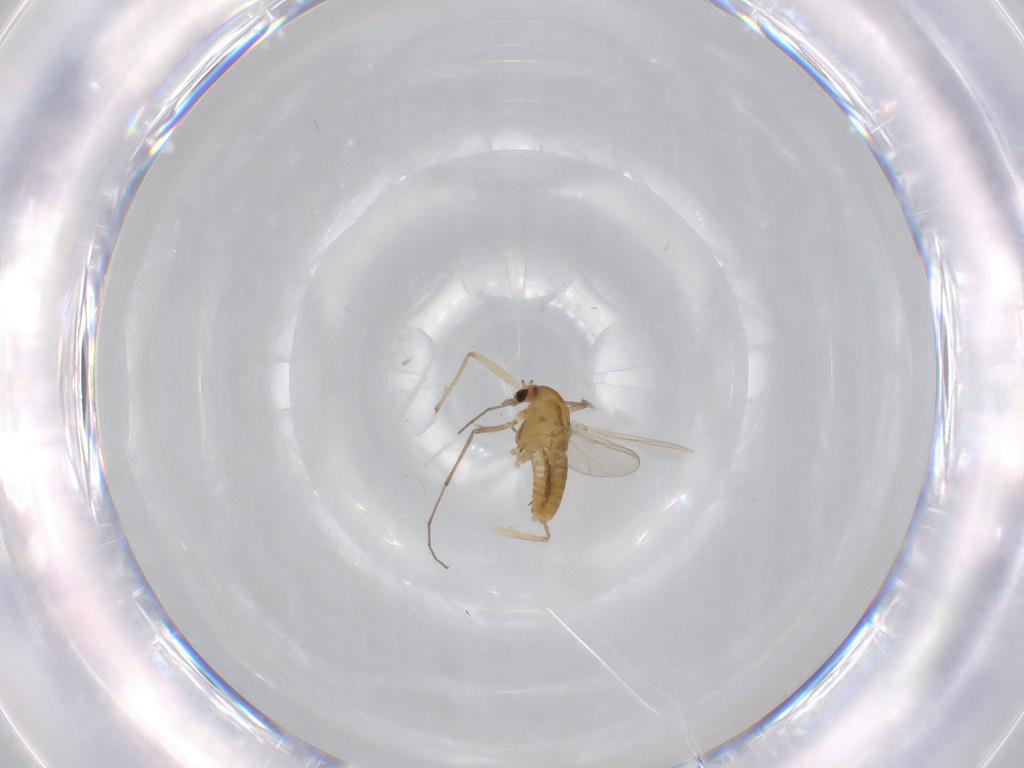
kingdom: Animalia
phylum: Arthropoda
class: Insecta
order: Diptera
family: Chironomidae
